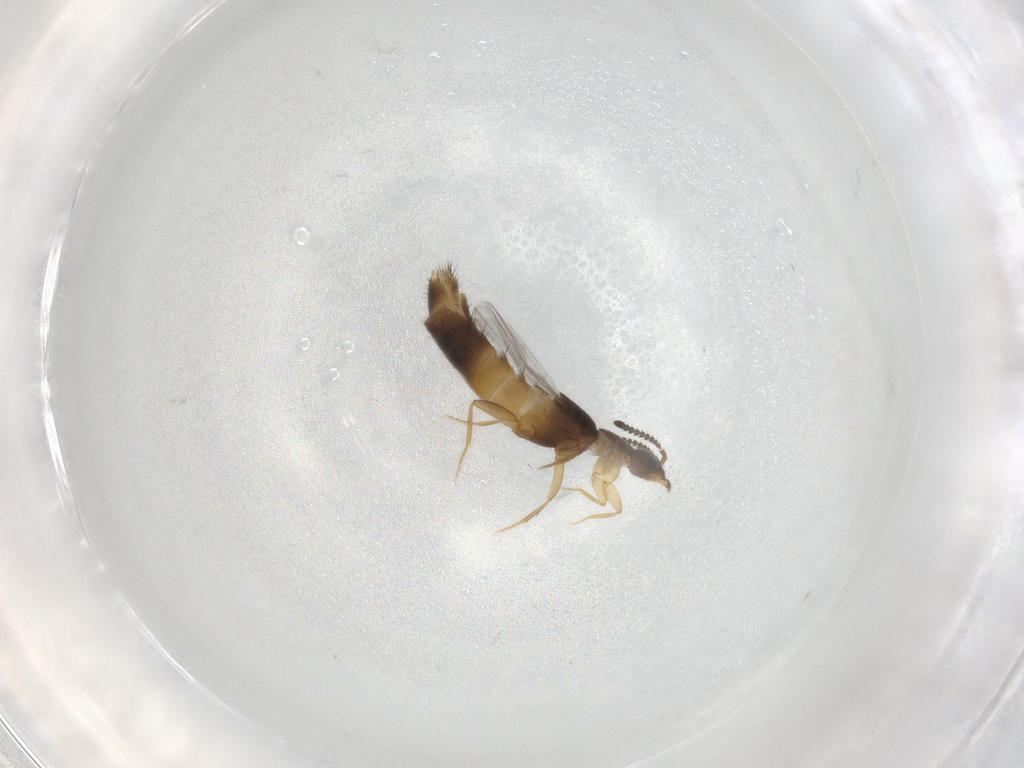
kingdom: Animalia
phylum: Arthropoda
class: Insecta
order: Coleoptera
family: Staphylinidae
